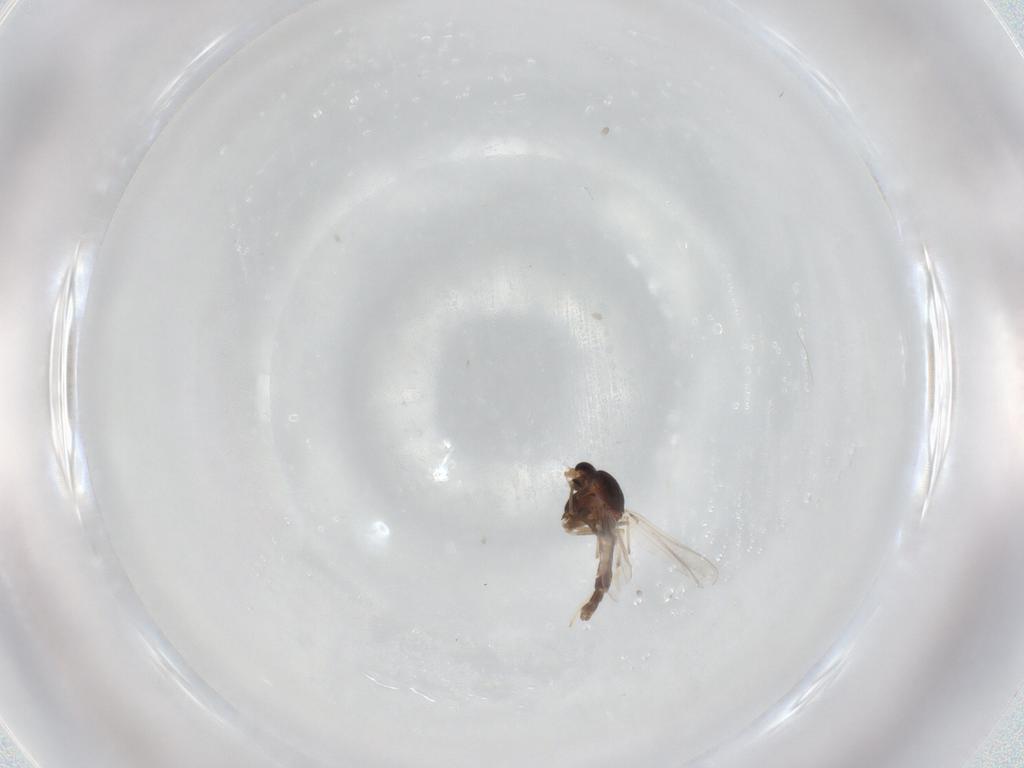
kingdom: Animalia
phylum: Arthropoda
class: Insecta
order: Diptera
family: Chironomidae
